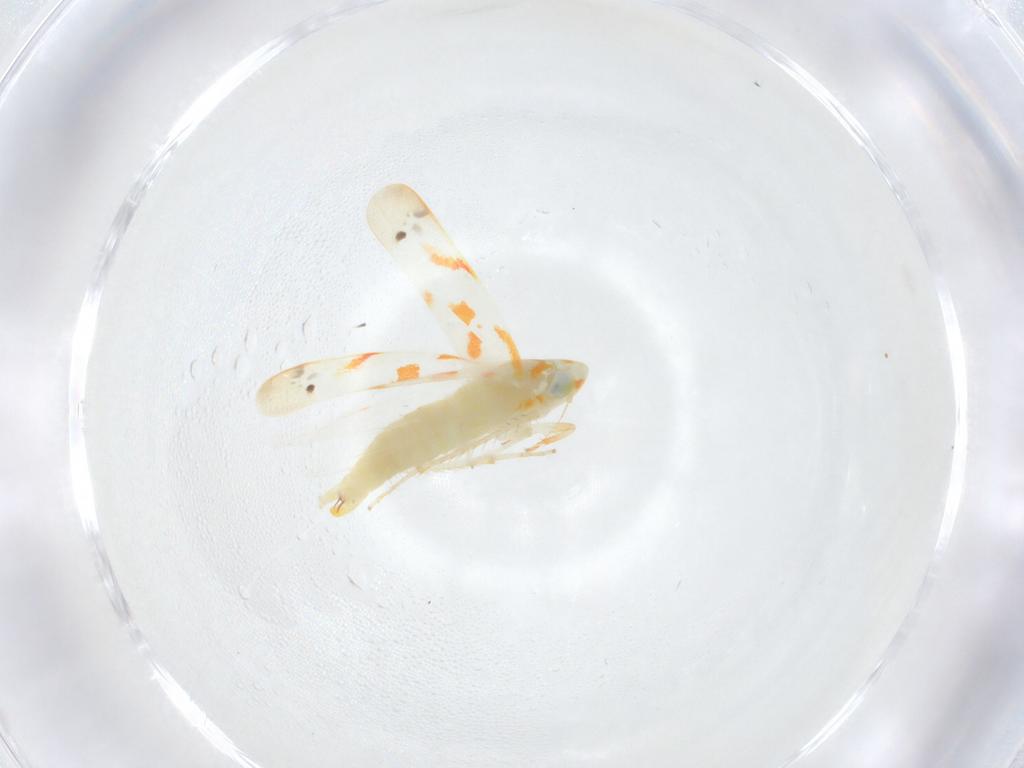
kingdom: Animalia
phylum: Arthropoda
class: Insecta
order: Hemiptera
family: Cicadellidae
